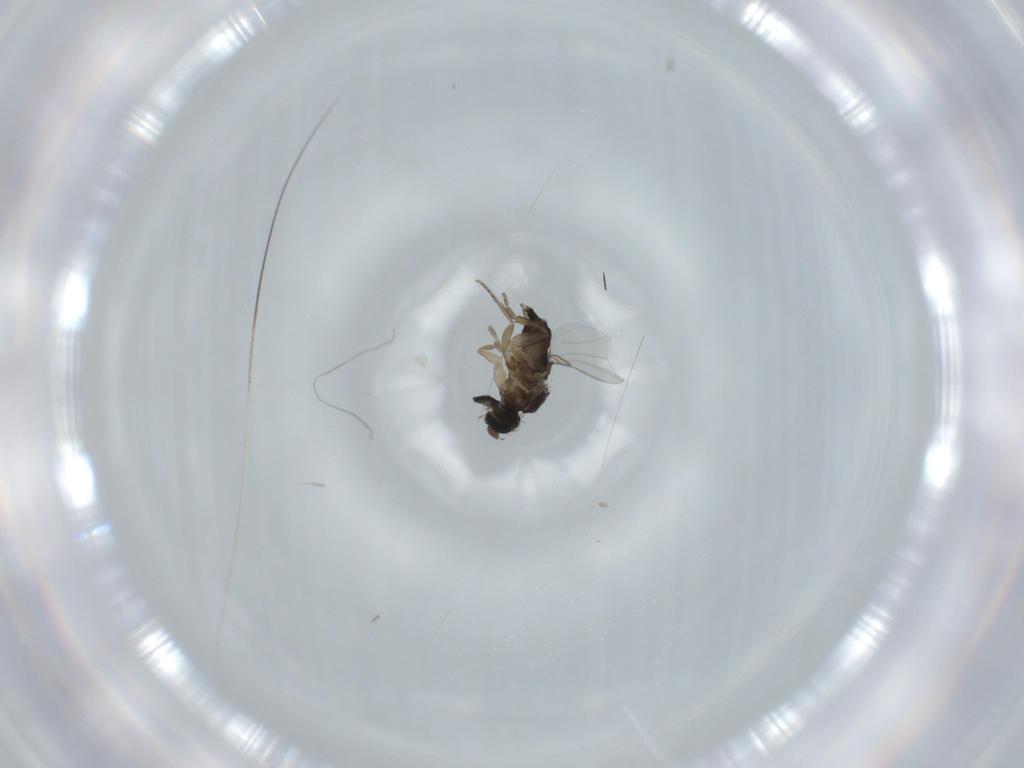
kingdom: Animalia
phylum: Arthropoda
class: Insecta
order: Diptera
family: Phoridae
